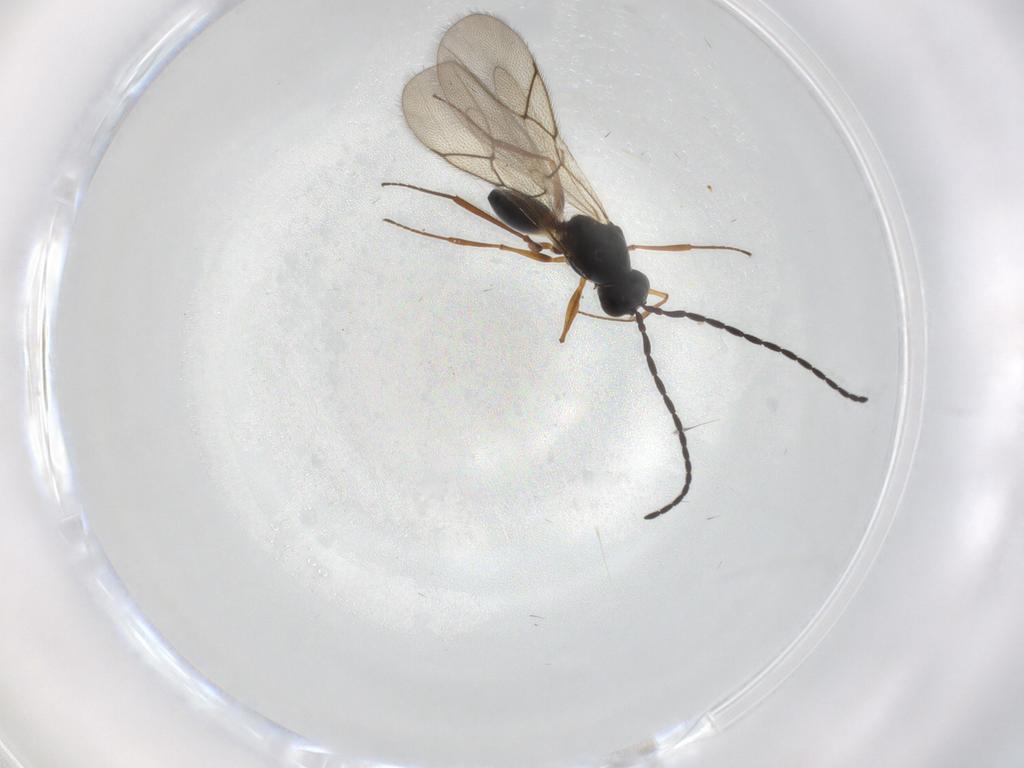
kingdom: Animalia
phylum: Arthropoda
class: Insecta
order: Hymenoptera
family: Figitidae
